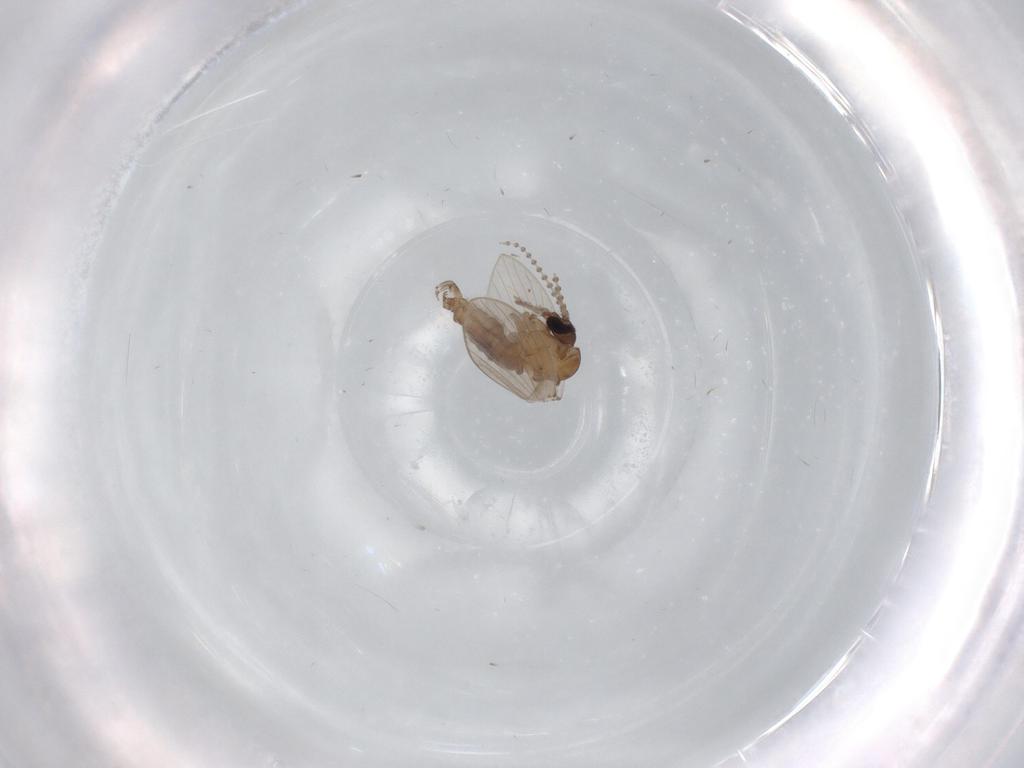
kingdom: Animalia
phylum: Arthropoda
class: Insecta
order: Diptera
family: Psychodidae
